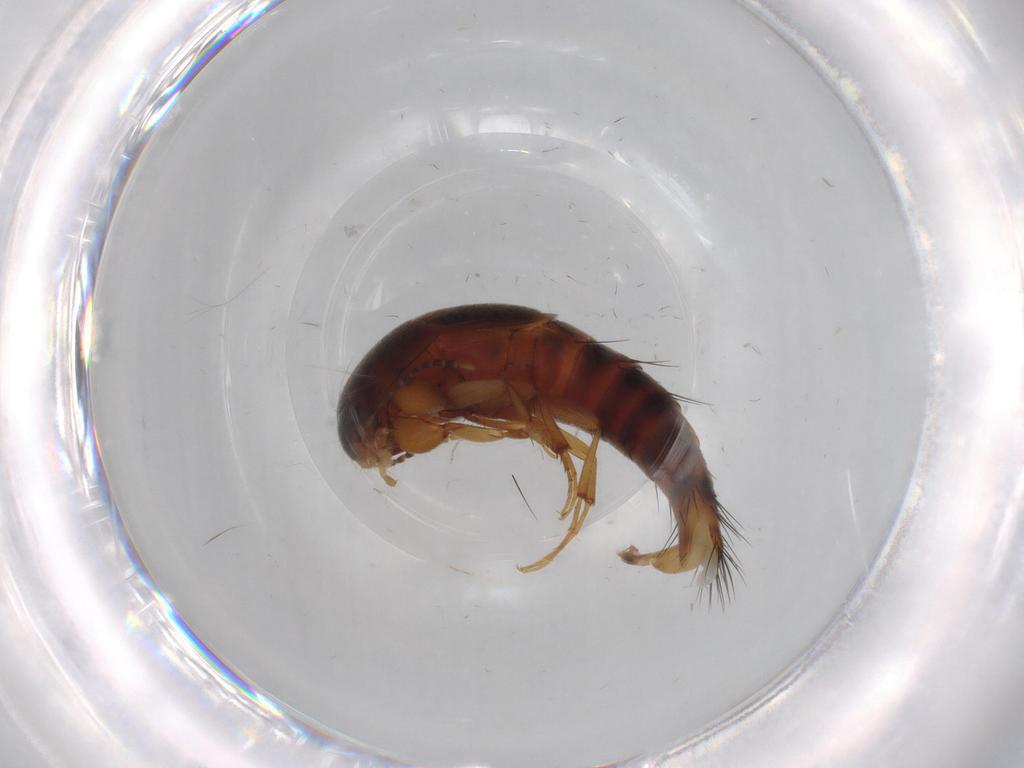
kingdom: Animalia
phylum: Arthropoda
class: Insecta
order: Coleoptera
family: Staphylinidae
